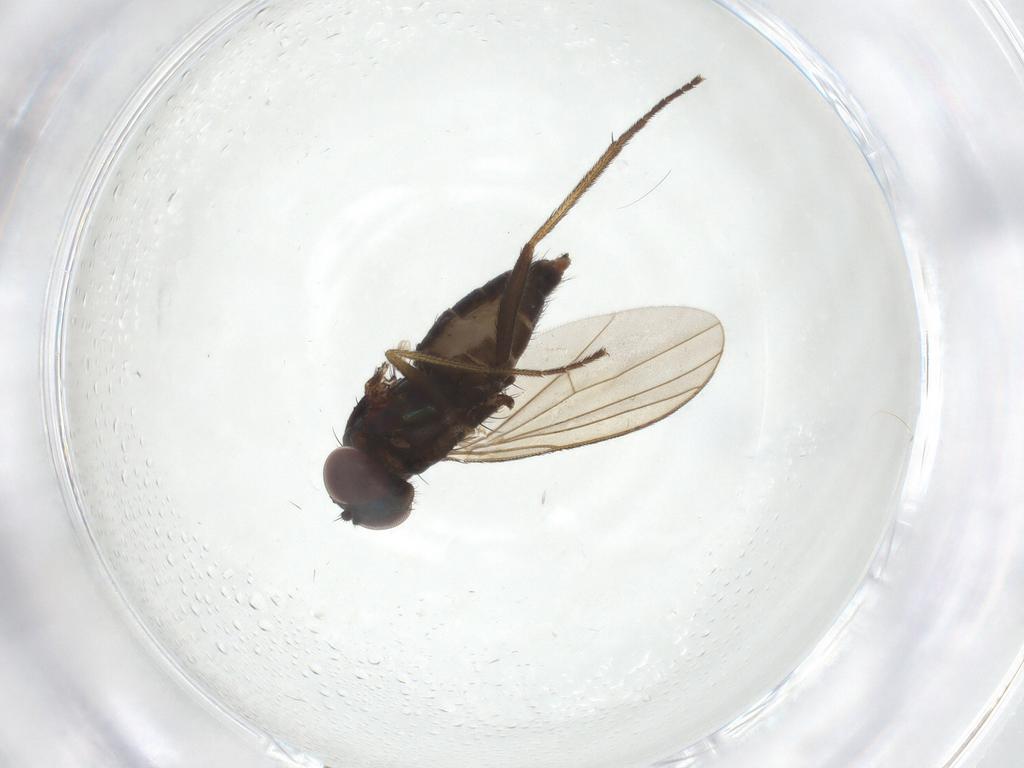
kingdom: Animalia
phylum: Arthropoda
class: Insecta
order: Diptera
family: Dolichopodidae
